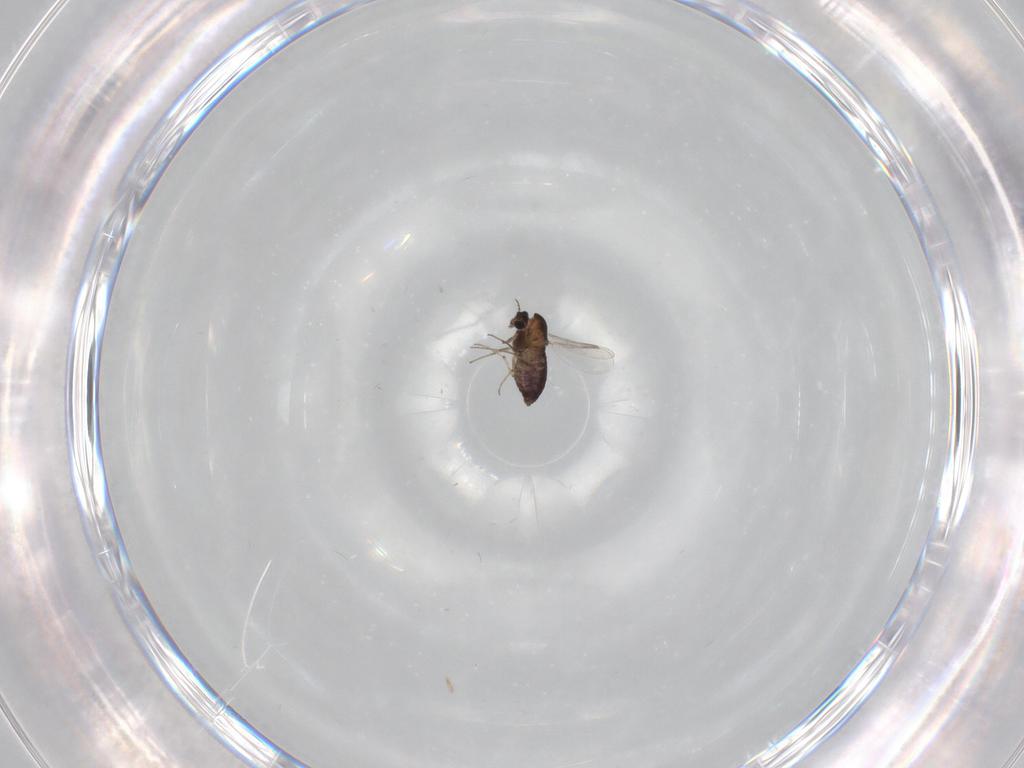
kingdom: Animalia
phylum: Arthropoda
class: Insecta
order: Diptera
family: Chironomidae
